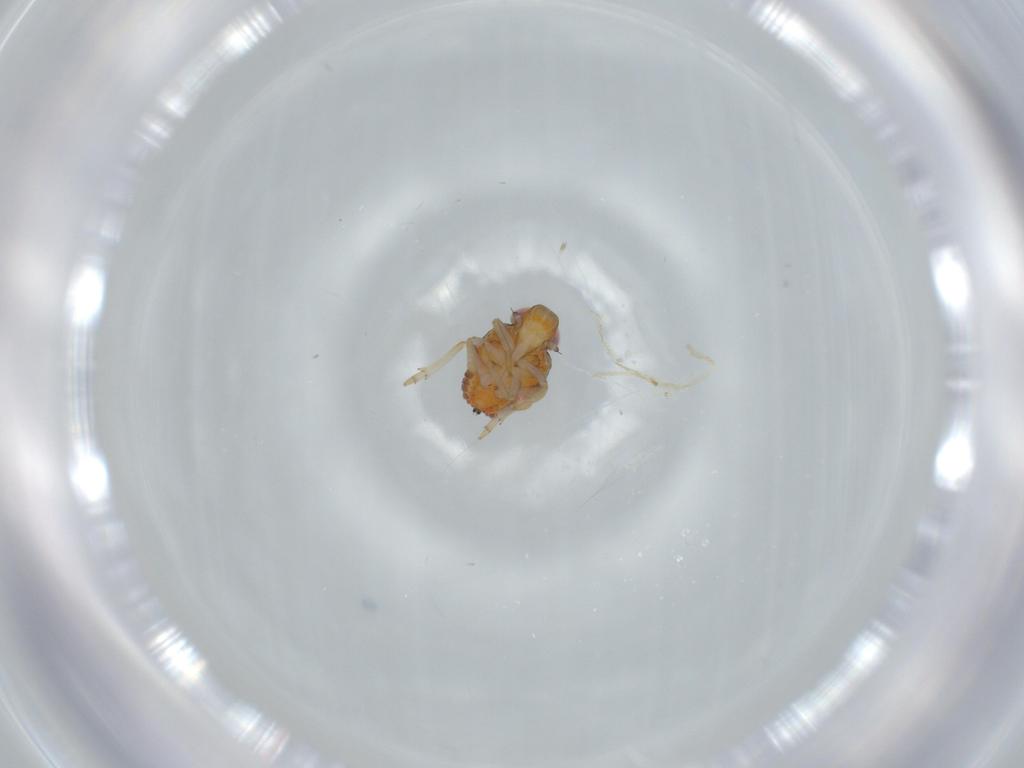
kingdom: Animalia
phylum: Arthropoda
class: Insecta
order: Hemiptera
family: Issidae
